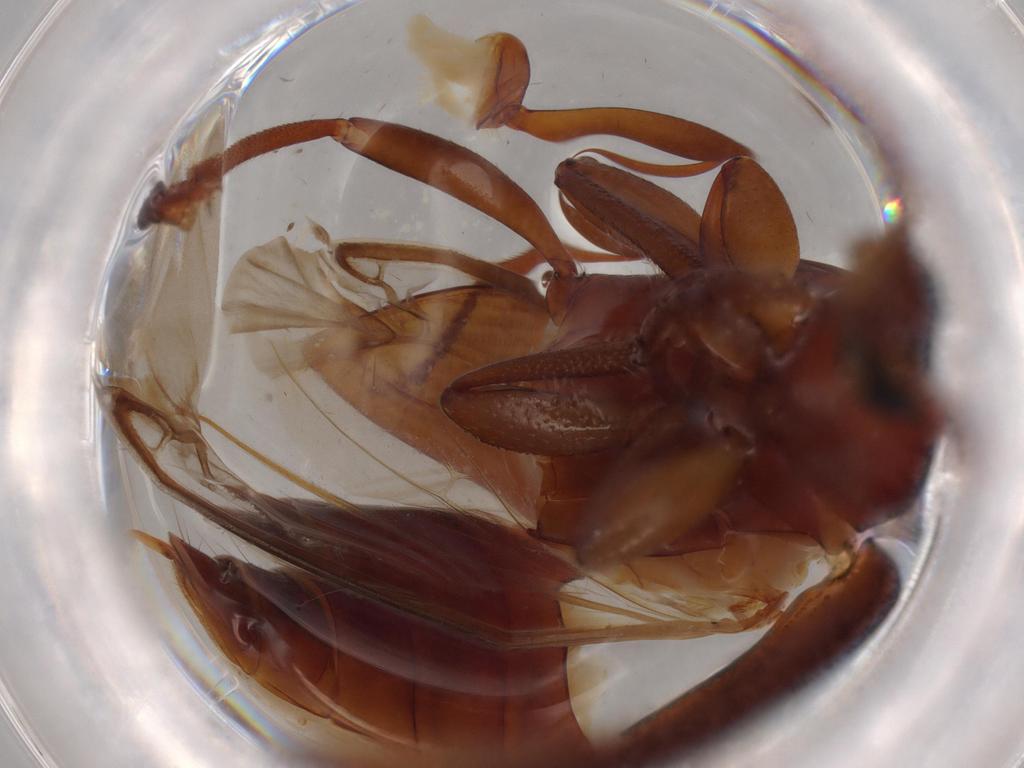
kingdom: Animalia
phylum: Arthropoda
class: Insecta
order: Coleoptera
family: Tenebrionidae
